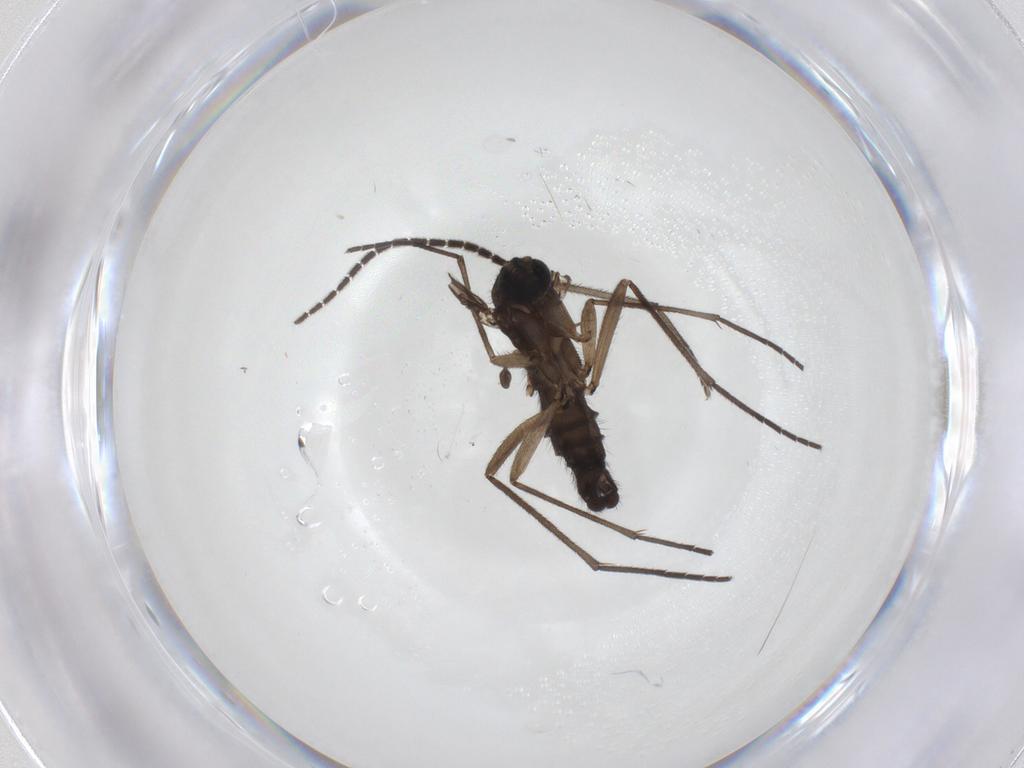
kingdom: Animalia
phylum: Arthropoda
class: Insecta
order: Diptera
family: Sciaridae
